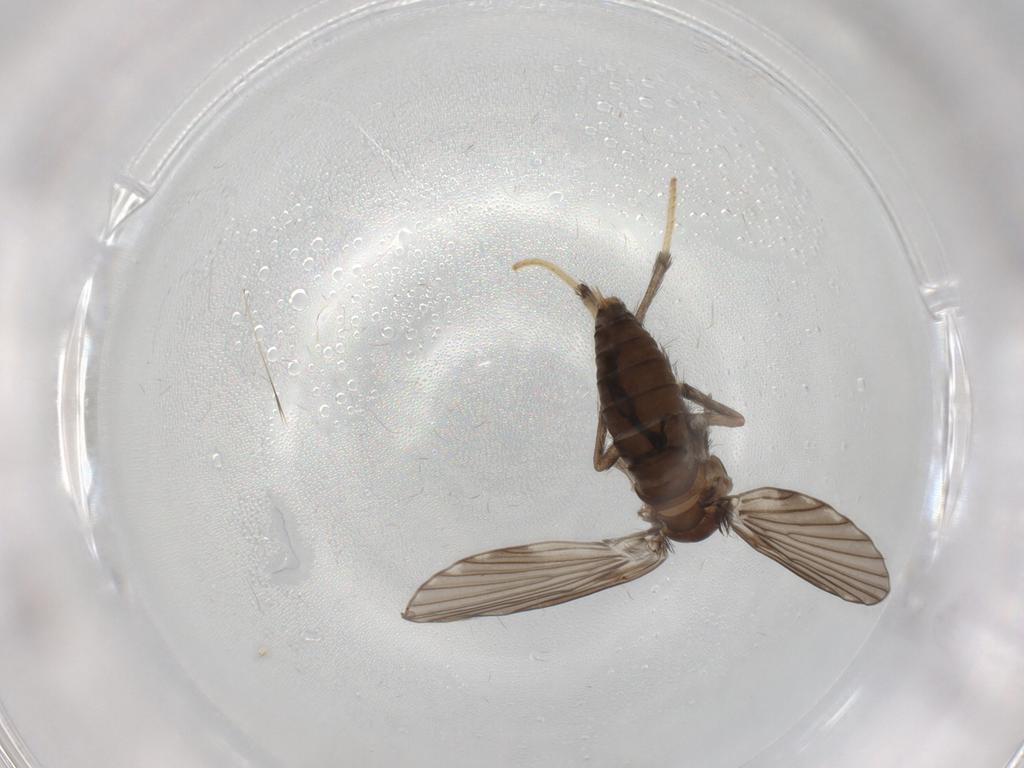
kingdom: Animalia
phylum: Arthropoda
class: Insecta
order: Diptera
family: Psychodidae
